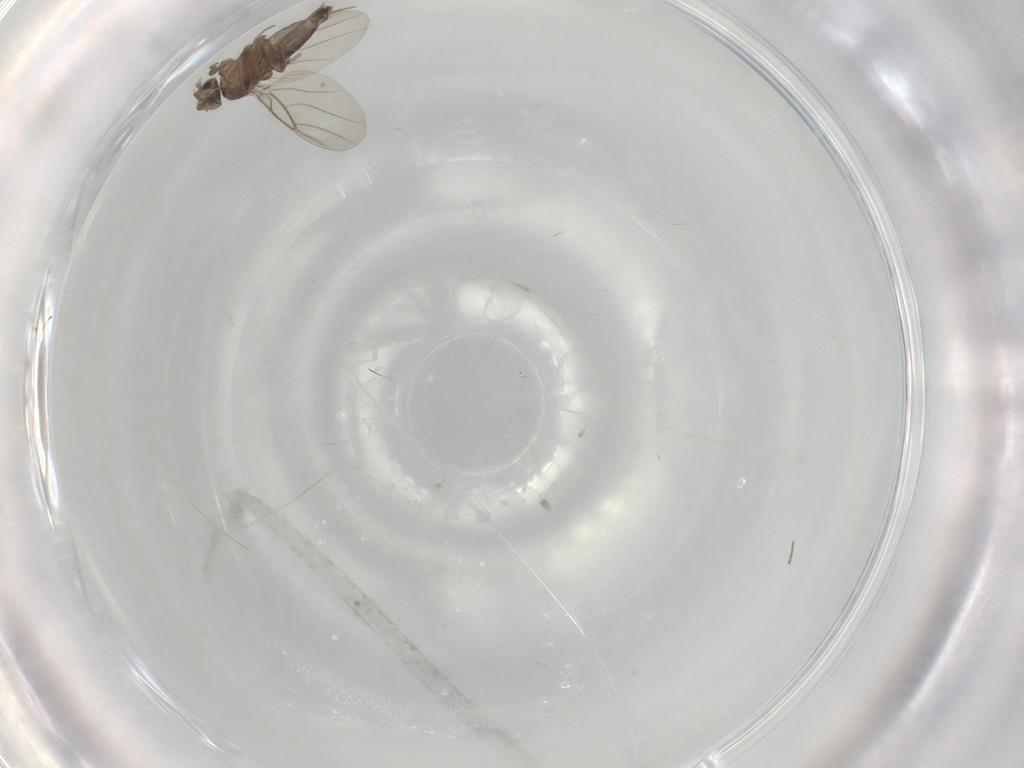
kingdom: Animalia
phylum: Arthropoda
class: Insecta
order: Diptera
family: Phoridae
